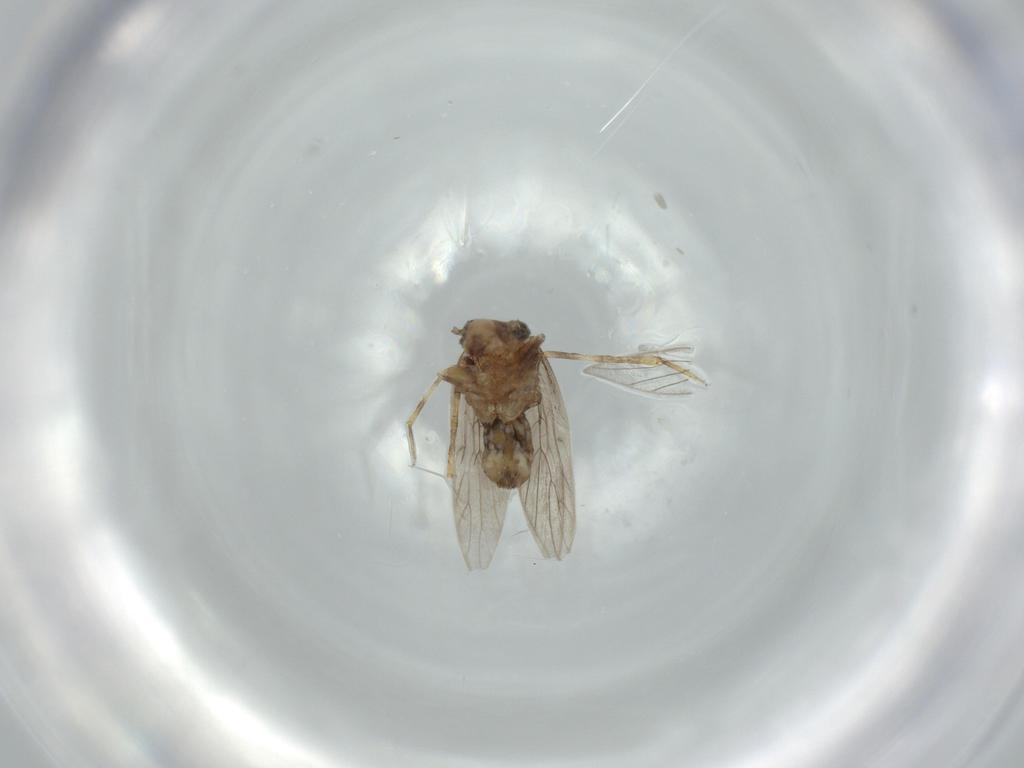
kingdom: Animalia
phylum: Arthropoda
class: Insecta
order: Psocodea
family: Lepidopsocidae
